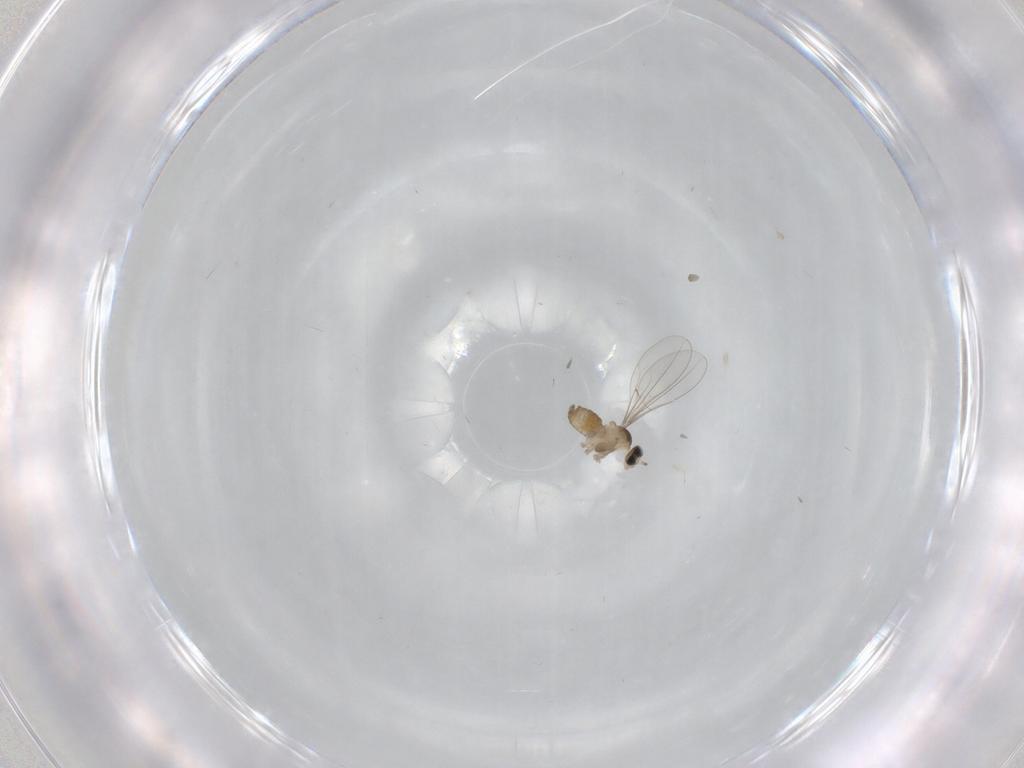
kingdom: Animalia
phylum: Arthropoda
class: Insecta
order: Diptera
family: Cecidomyiidae
